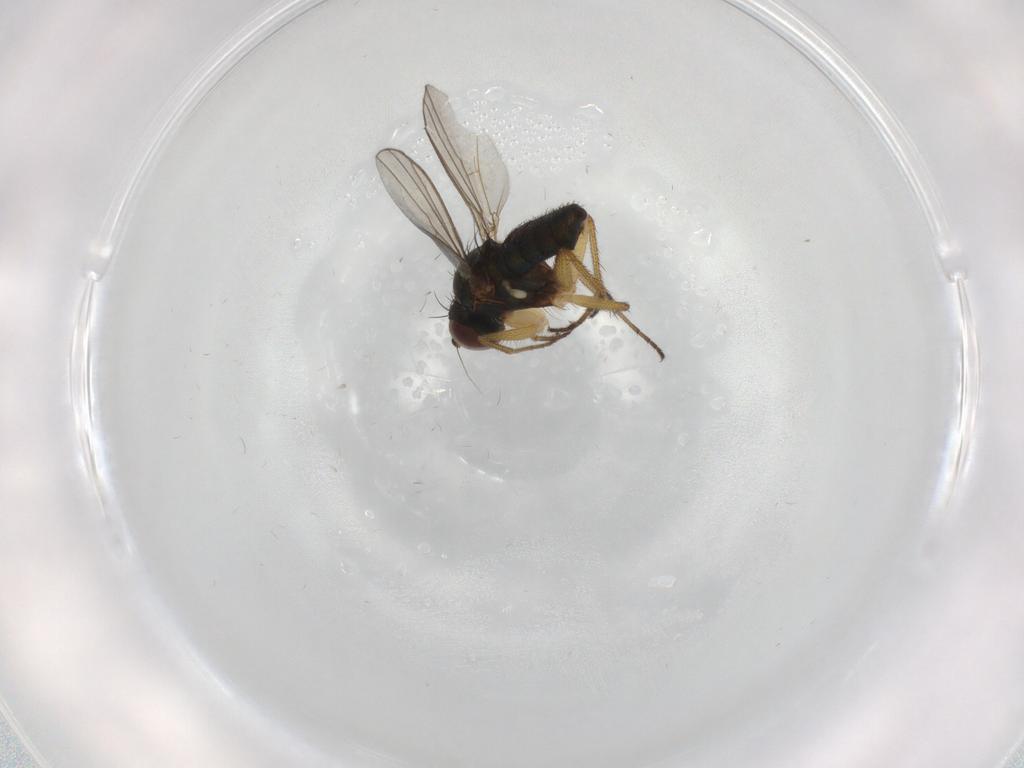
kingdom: Animalia
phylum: Arthropoda
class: Insecta
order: Diptera
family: Dolichopodidae
